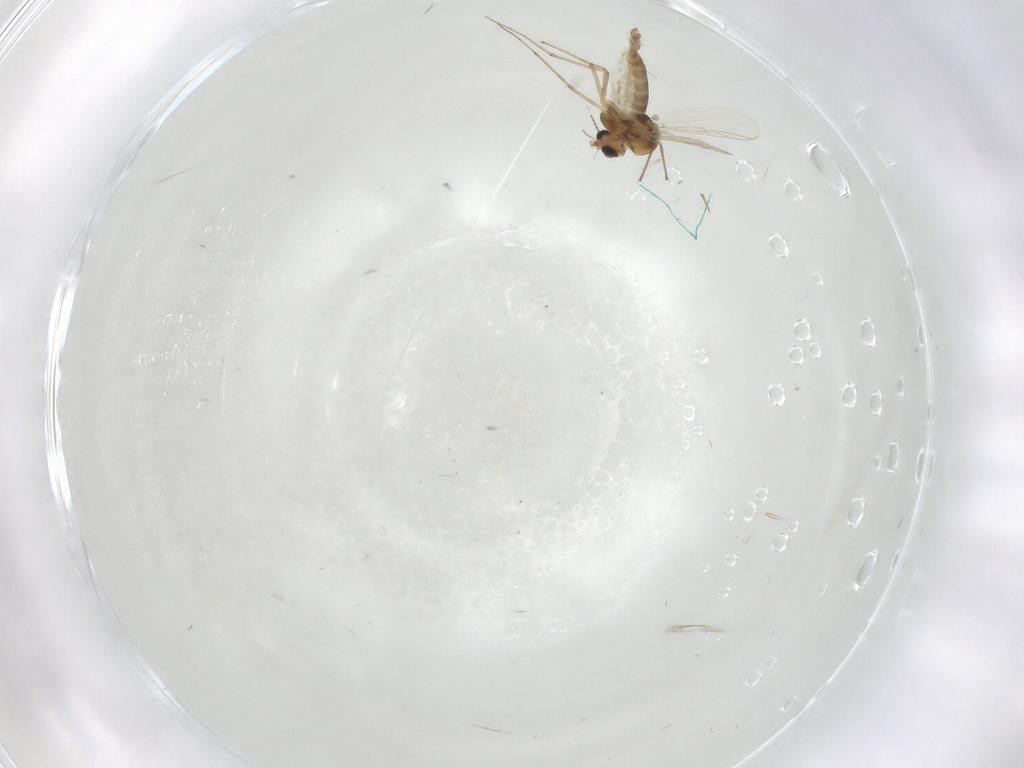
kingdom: Animalia
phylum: Arthropoda
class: Insecta
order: Diptera
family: Chironomidae
